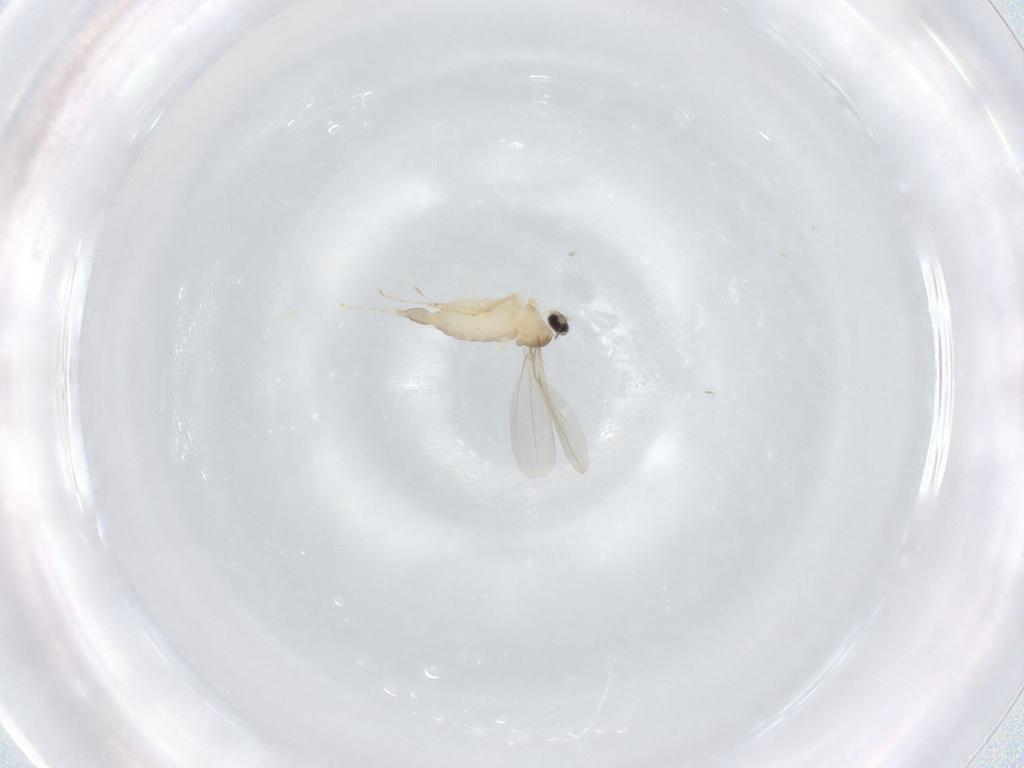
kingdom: Animalia
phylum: Arthropoda
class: Insecta
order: Diptera
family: Cecidomyiidae
